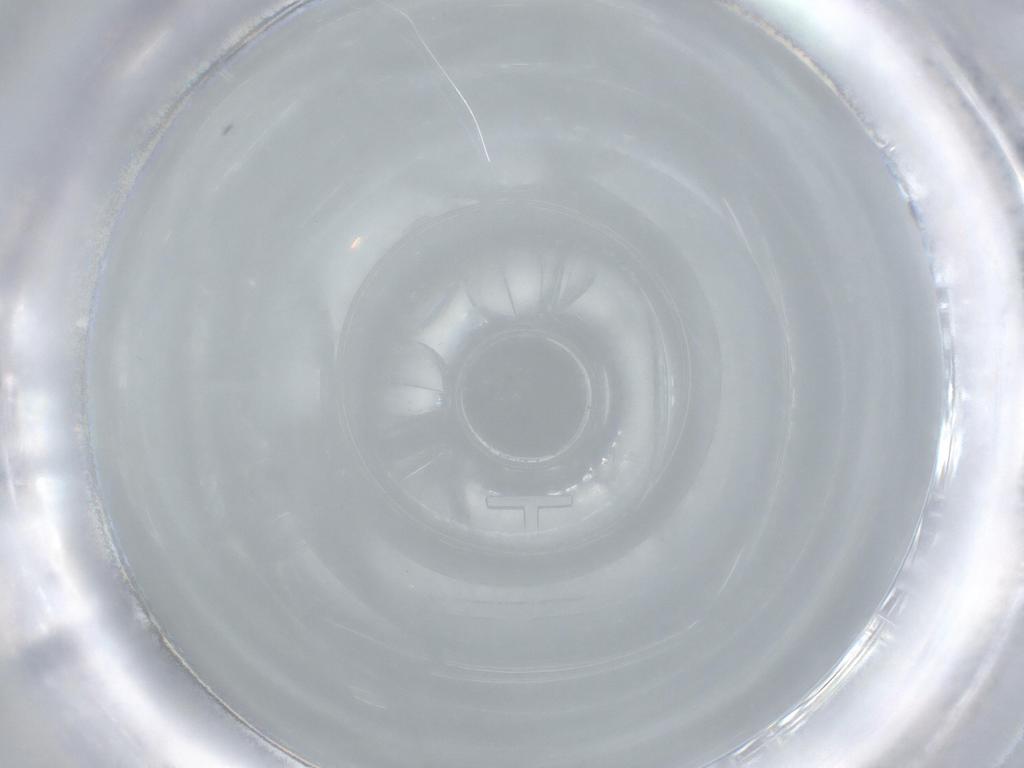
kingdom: Animalia
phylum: Arthropoda
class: Insecta
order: Diptera
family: Micropezidae
